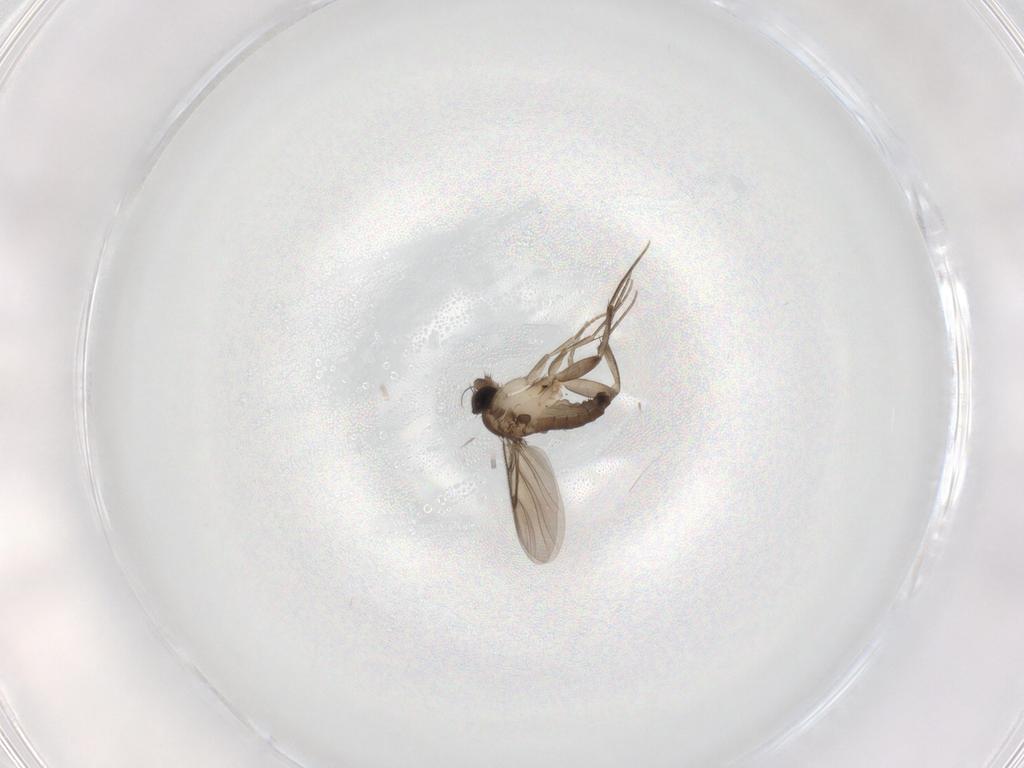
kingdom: Animalia
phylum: Arthropoda
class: Insecta
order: Diptera
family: Phoridae
